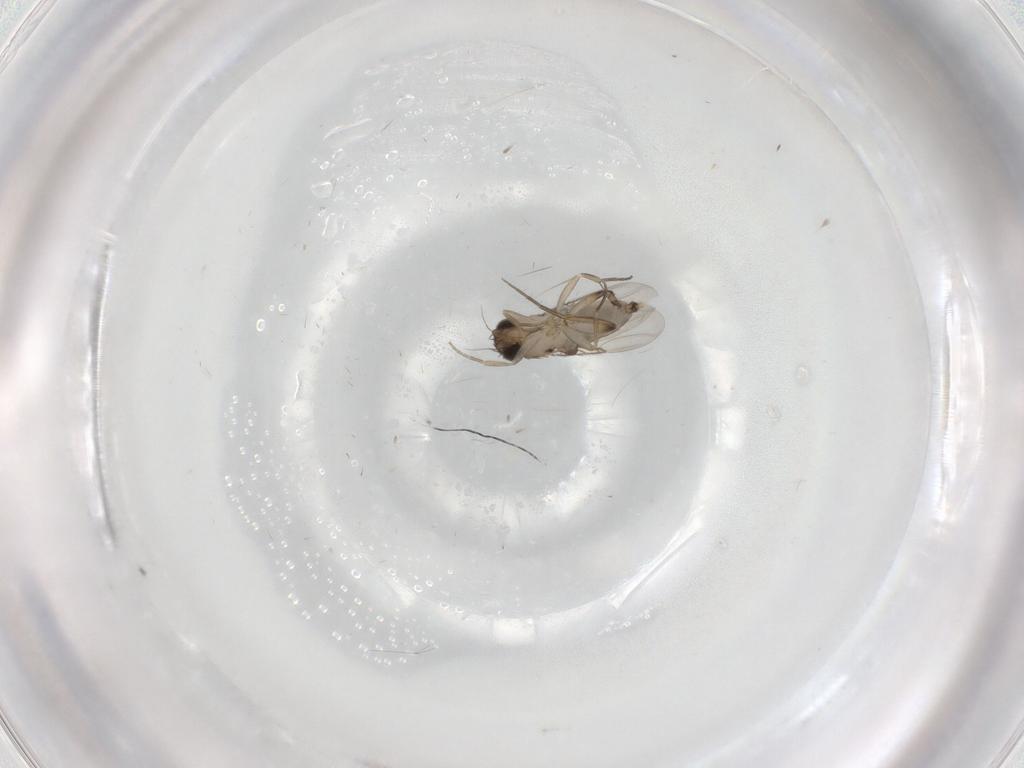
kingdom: Animalia
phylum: Arthropoda
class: Insecta
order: Diptera
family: Phoridae
